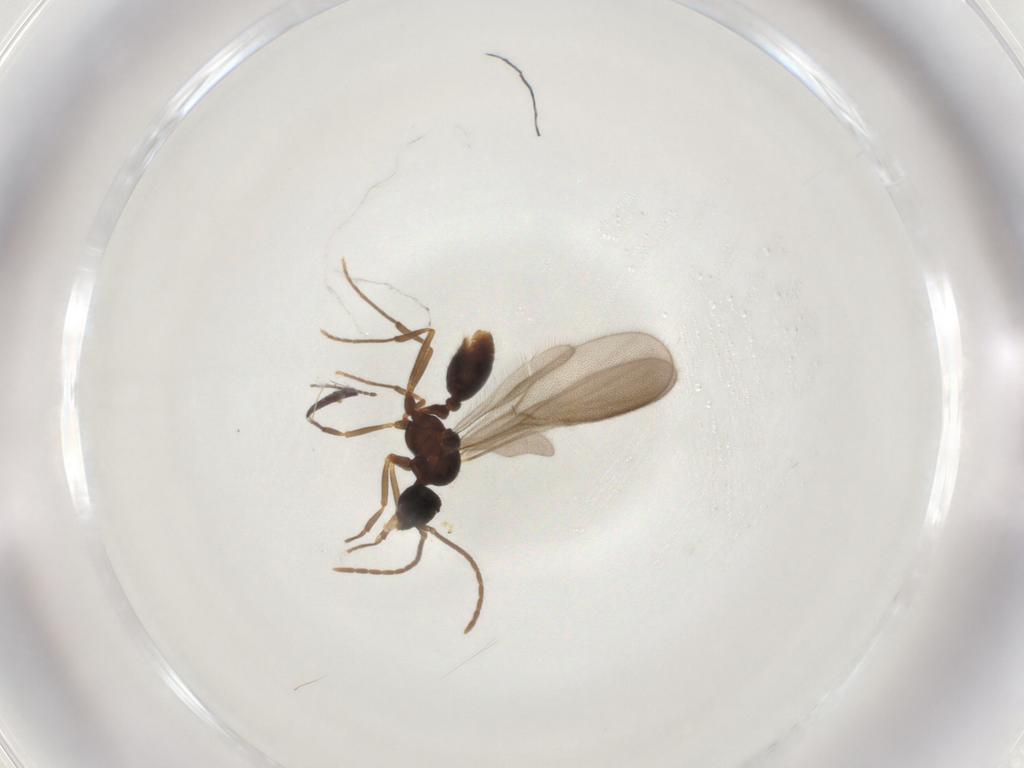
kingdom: Animalia
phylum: Arthropoda
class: Insecta
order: Hymenoptera
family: Formicidae
